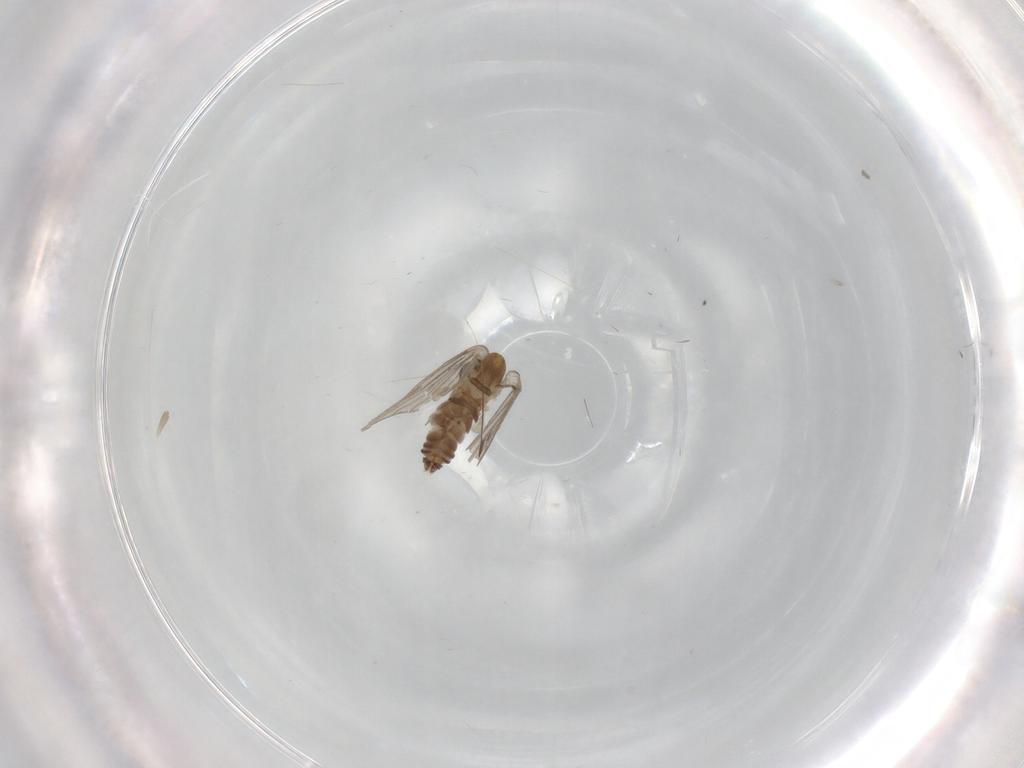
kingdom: Animalia
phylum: Arthropoda
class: Insecta
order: Diptera
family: Psychodidae
